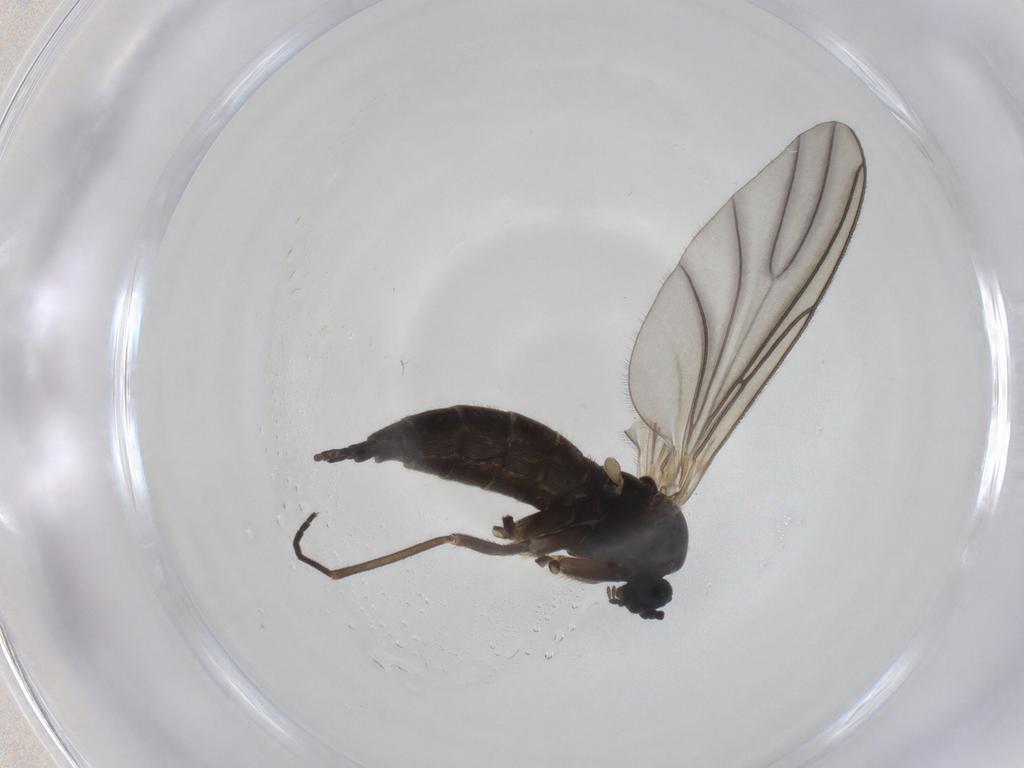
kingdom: Animalia
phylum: Arthropoda
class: Insecta
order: Diptera
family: Sciaridae
